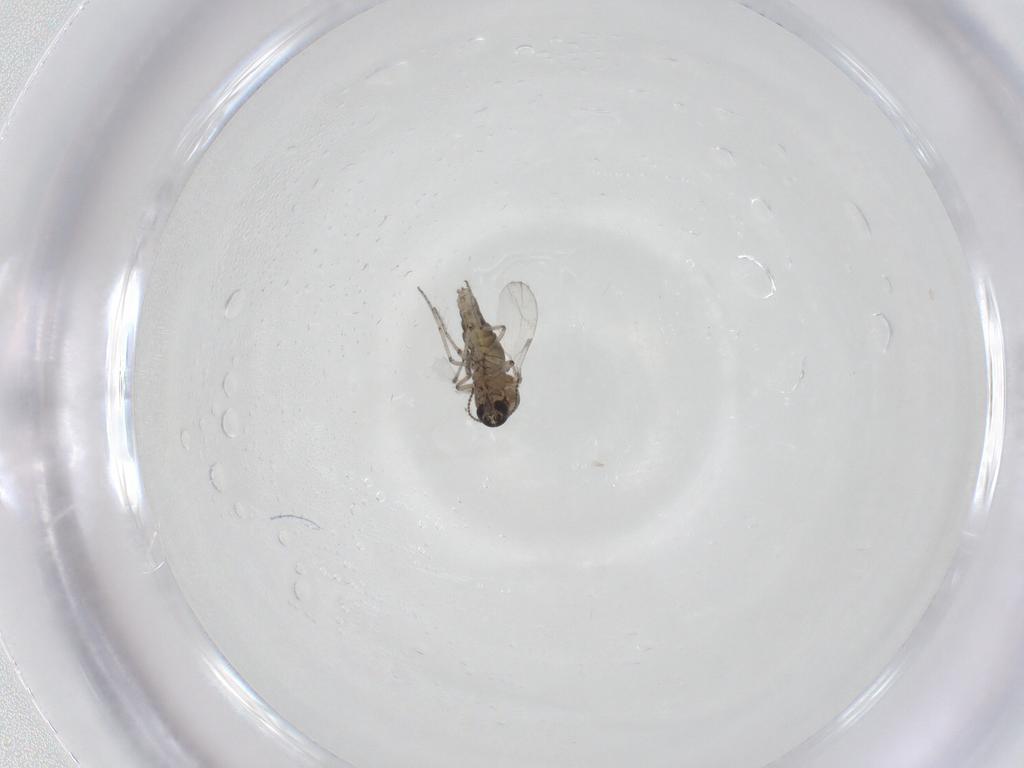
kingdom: Animalia
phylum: Arthropoda
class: Insecta
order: Diptera
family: Ceratopogonidae
